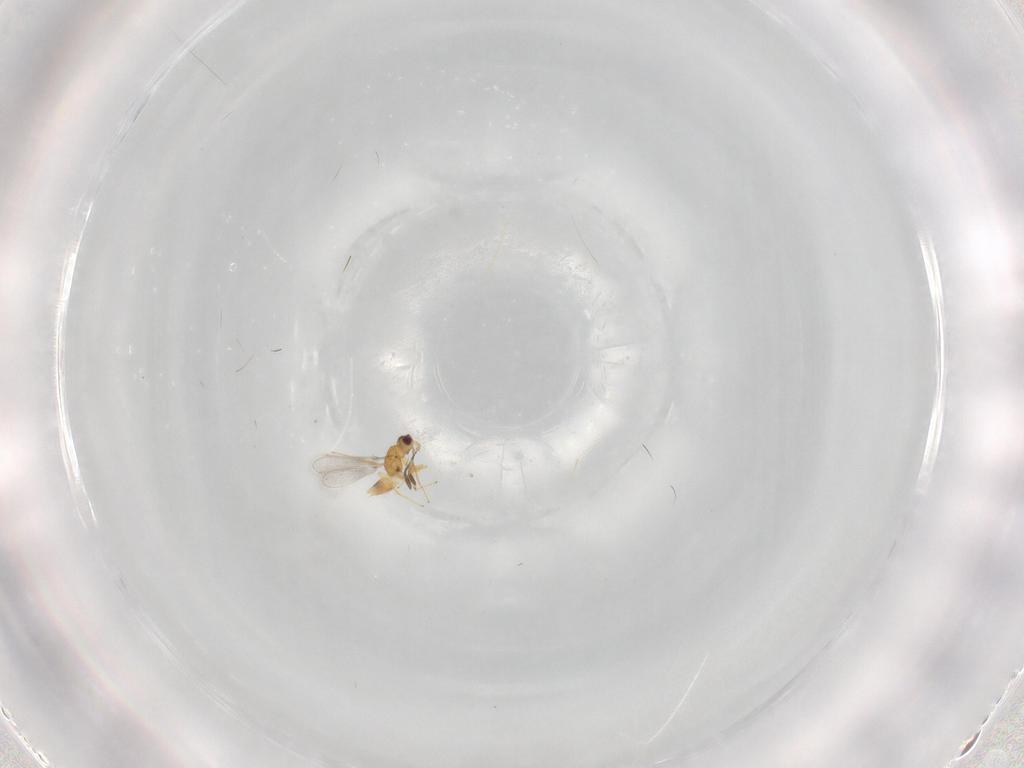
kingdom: Animalia
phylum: Arthropoda
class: Insecta
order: Hymenoptera
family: Mymaridae
